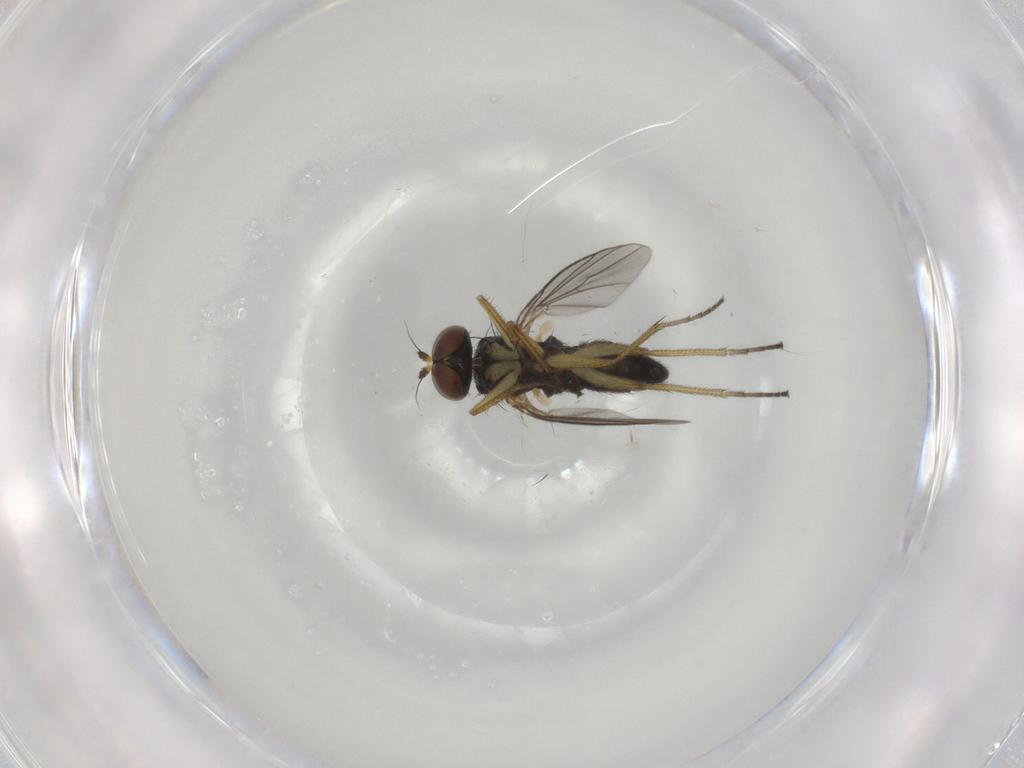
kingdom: Animalia
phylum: Arthropoda
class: Insecta
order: Diptera
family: Dolichopodidae
